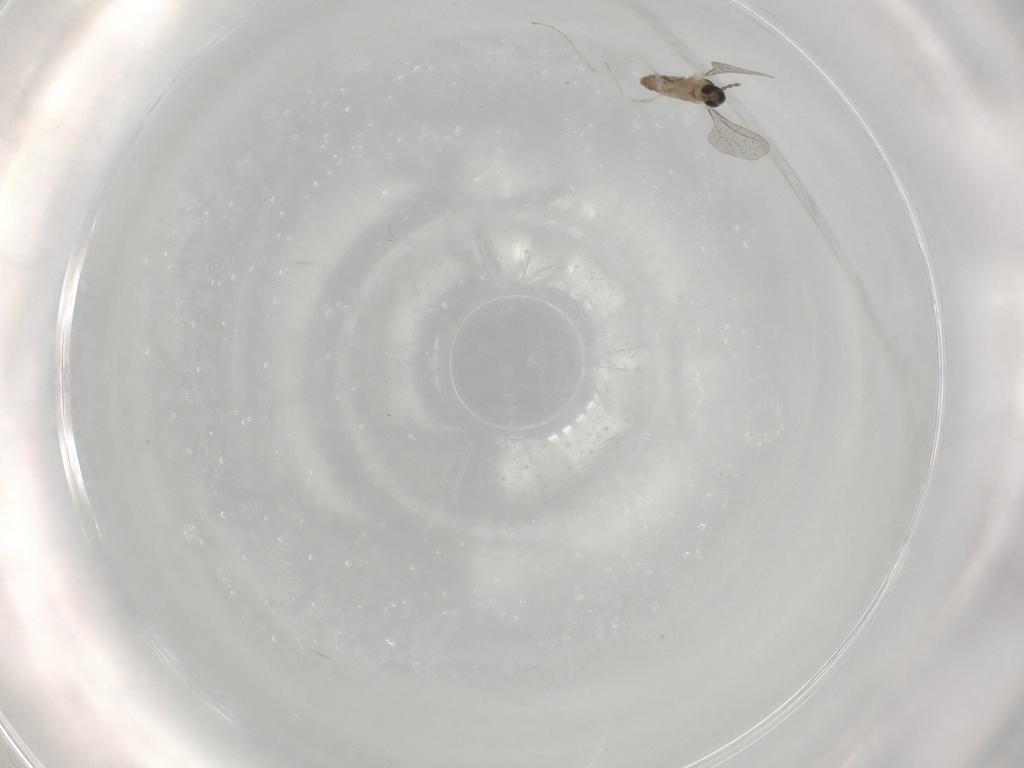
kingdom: Animalia
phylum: Arthropoda
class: Insecta
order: Diptera
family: Cecidomyiidae
